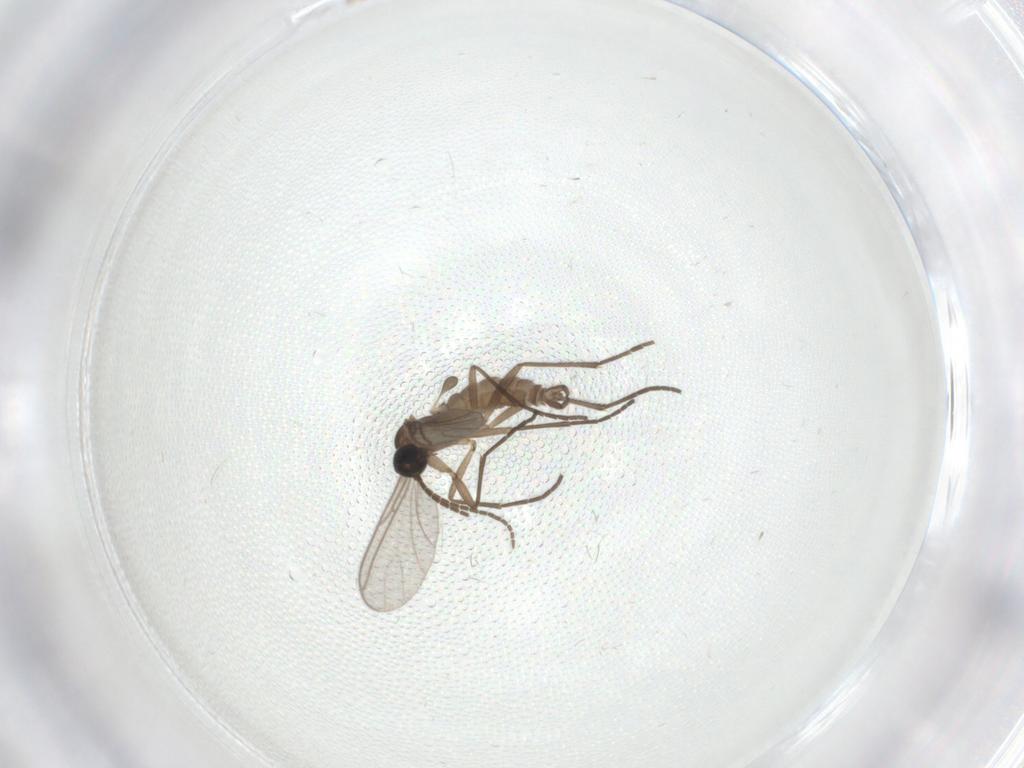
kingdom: Animalia
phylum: Arthropoda
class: Insecta
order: Diptera
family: Sciaridae
